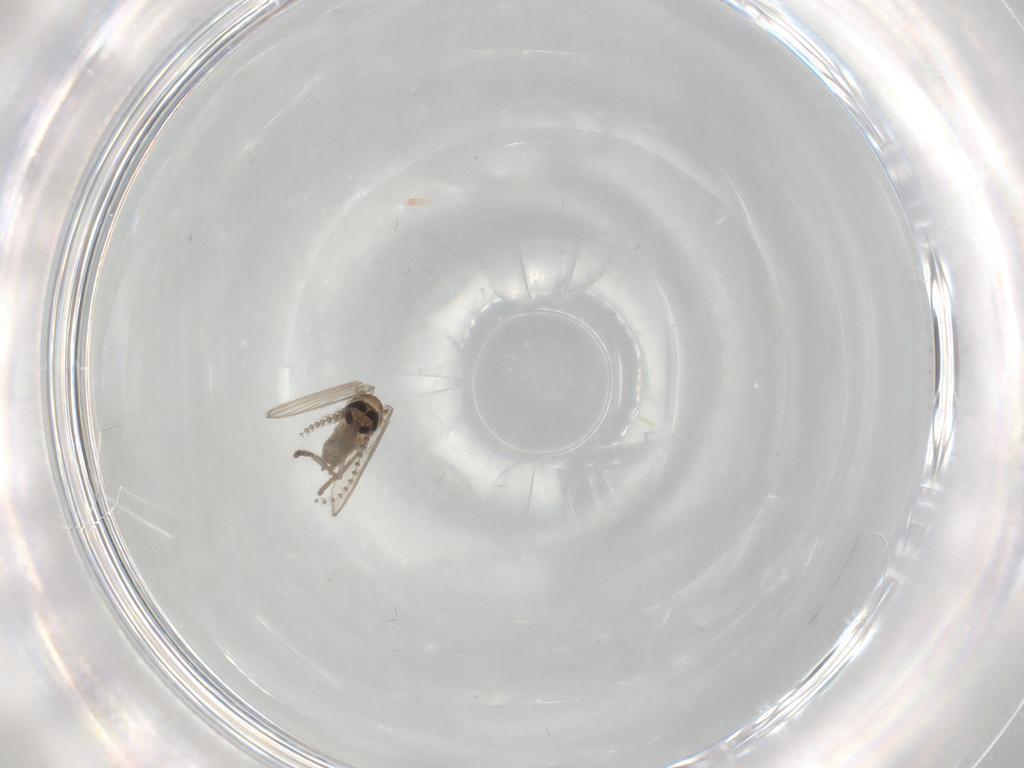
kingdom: Animalia
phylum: Arthropoda
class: Insecta
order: Diptera
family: Psychodidae
